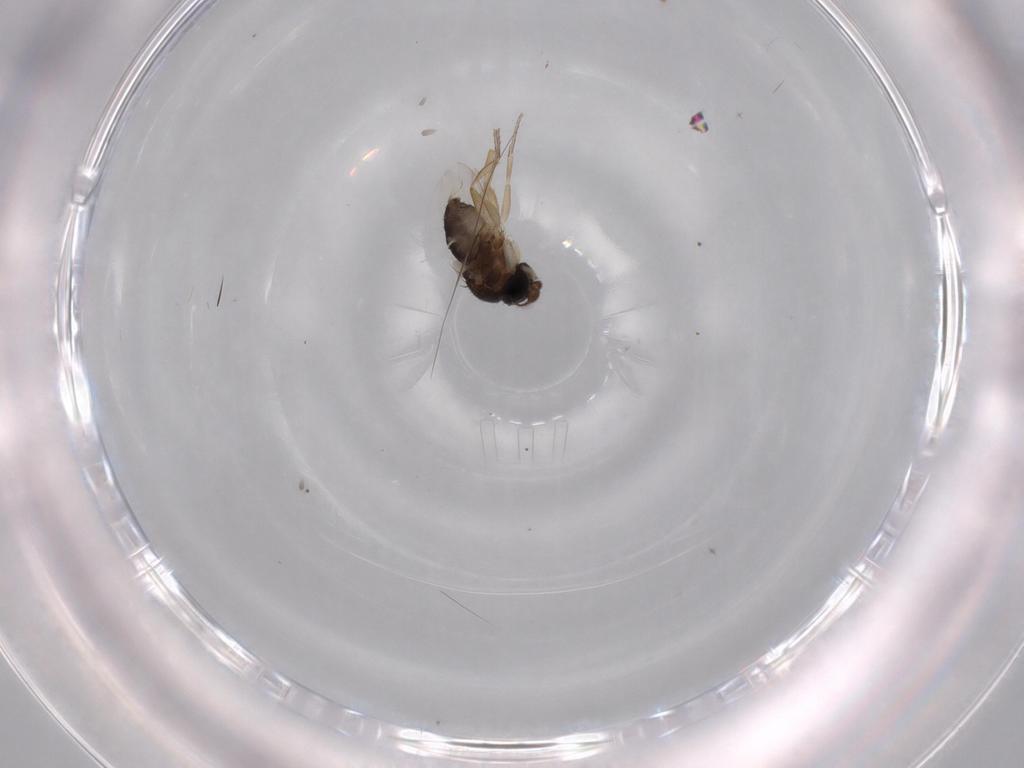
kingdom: Animalia
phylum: Arthropoda
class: Insecta
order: Diptera
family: Phoridae
